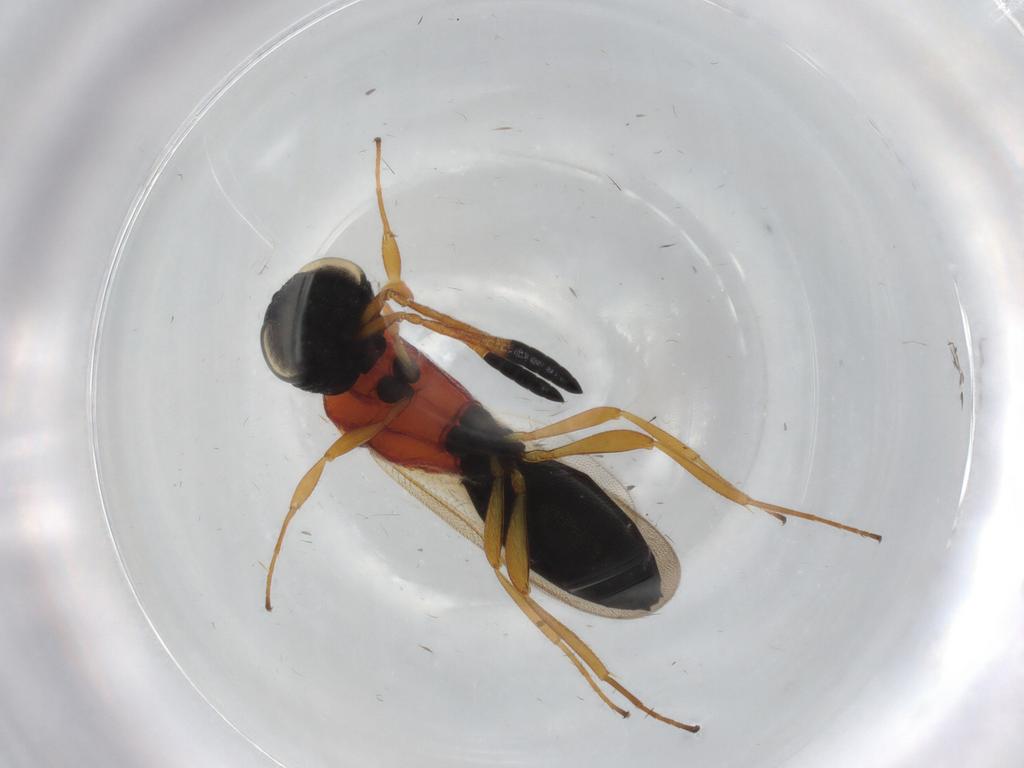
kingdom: Animalia
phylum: Arthropoda
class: Insecta
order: Hymenoptera
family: Scelionidae
